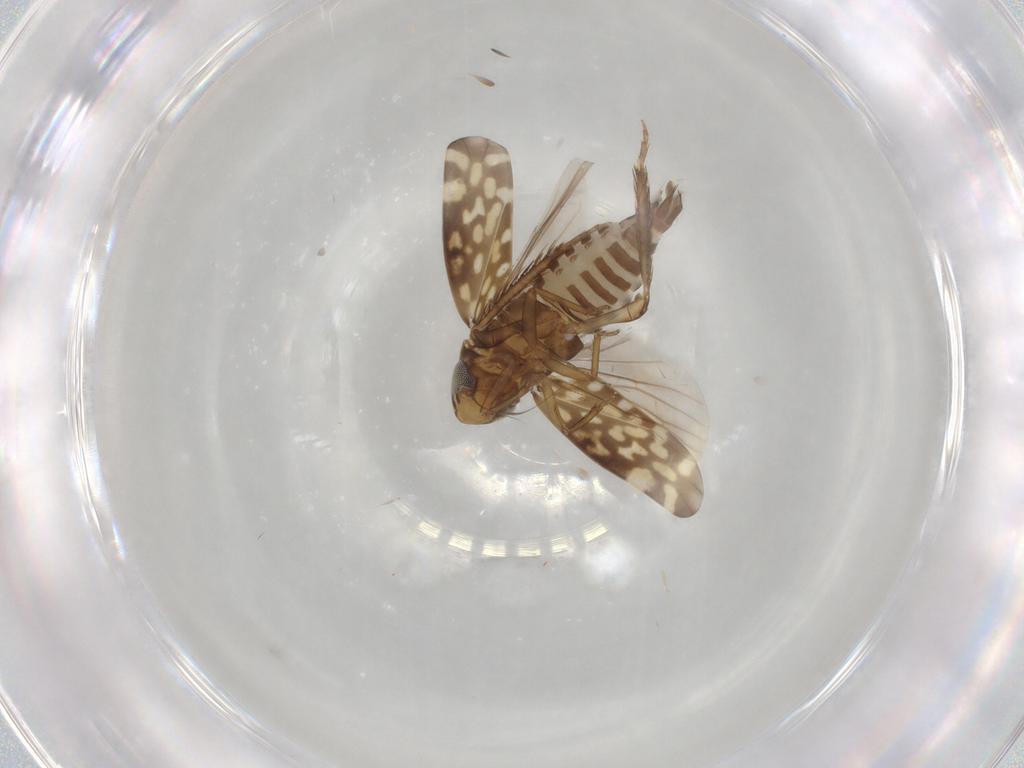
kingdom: Animalia
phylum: Arthropoda
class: Insecta
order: Hemiptera
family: Cicadellidae
